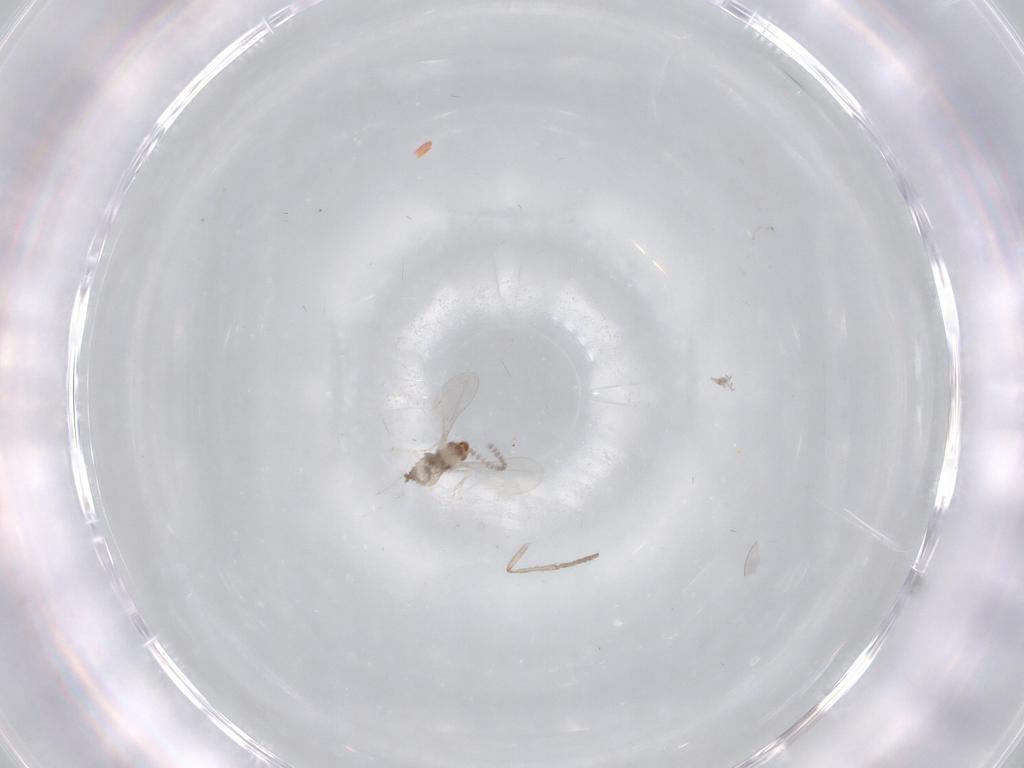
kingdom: Animalia
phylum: Arthropoda
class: Insecta
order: Diptera
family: Psychodidae
